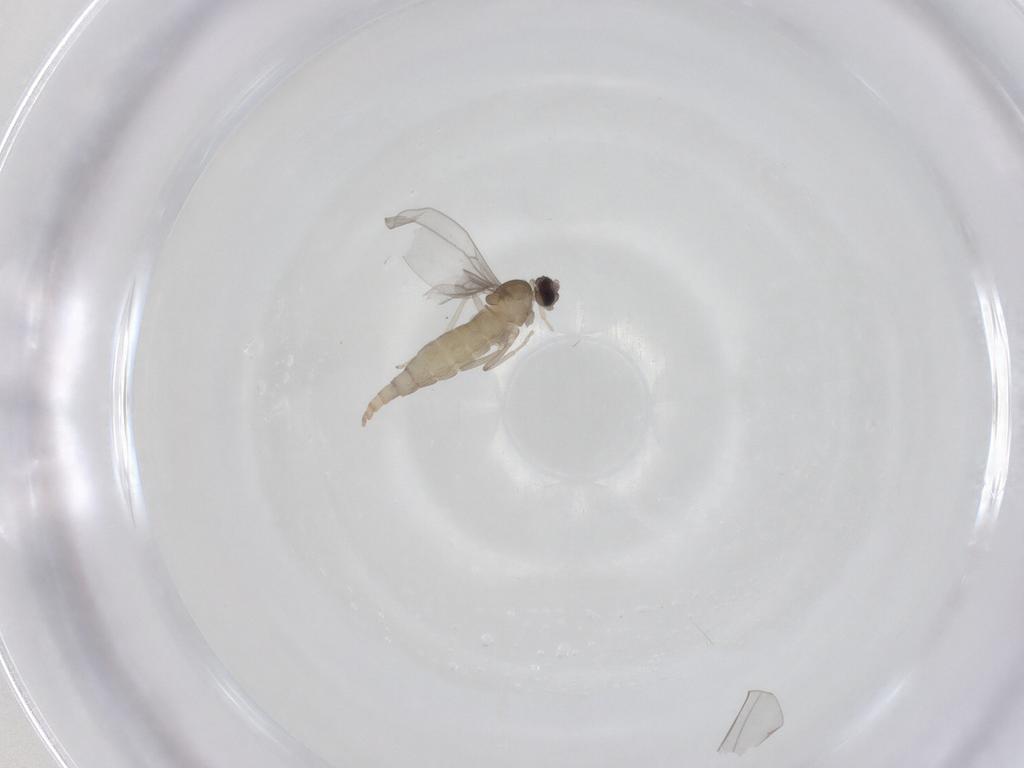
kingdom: Animalia
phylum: Arthropoda
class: Insecta
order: Diptera
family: Cecidomyiidae
